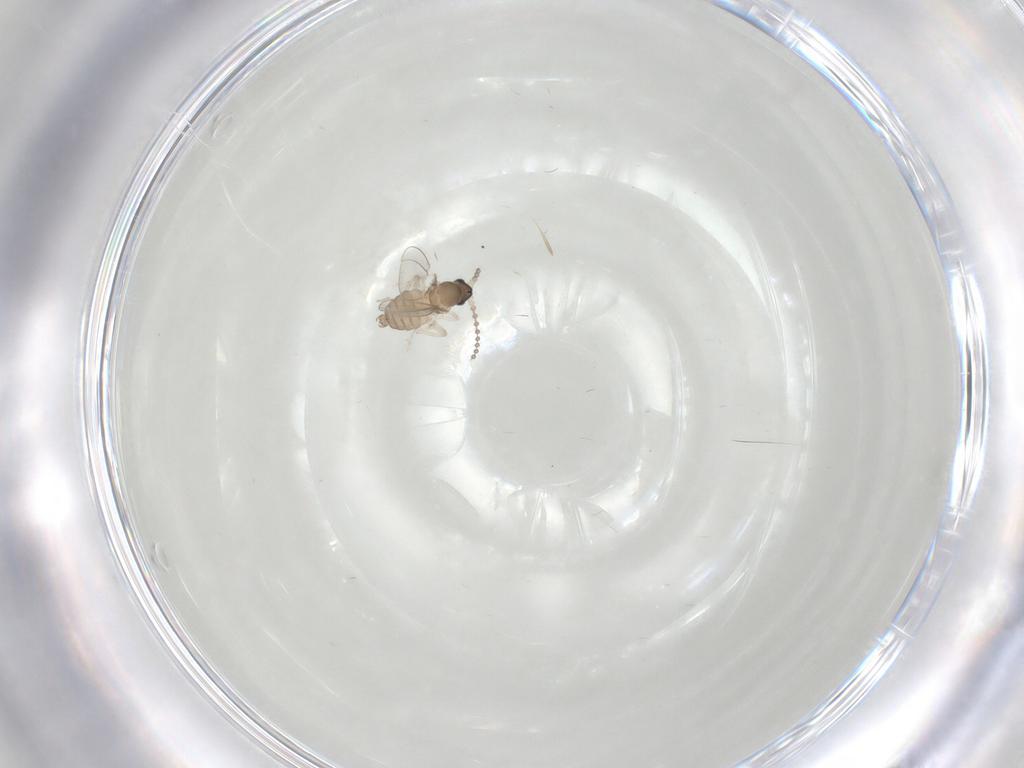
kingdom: Animalia
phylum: Arthropoda
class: Insecta
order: Diptera
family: Cecidomyiidae
